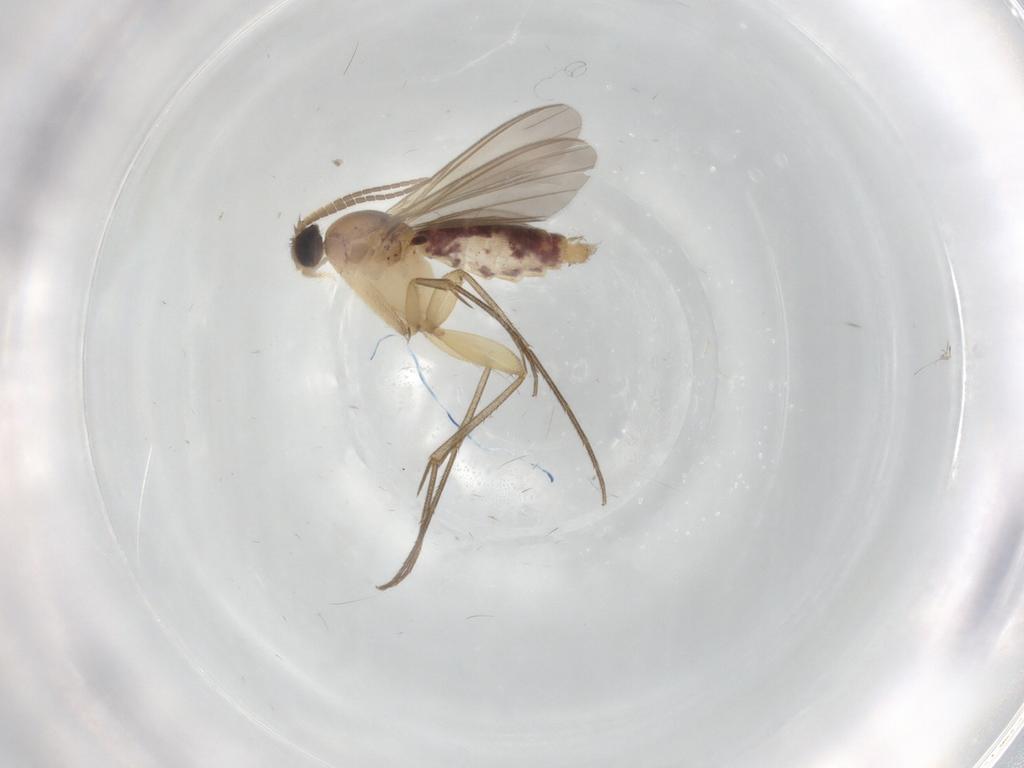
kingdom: Animalia
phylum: Arthropoda
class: Insecta
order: Diptera
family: Mycetophilidae
